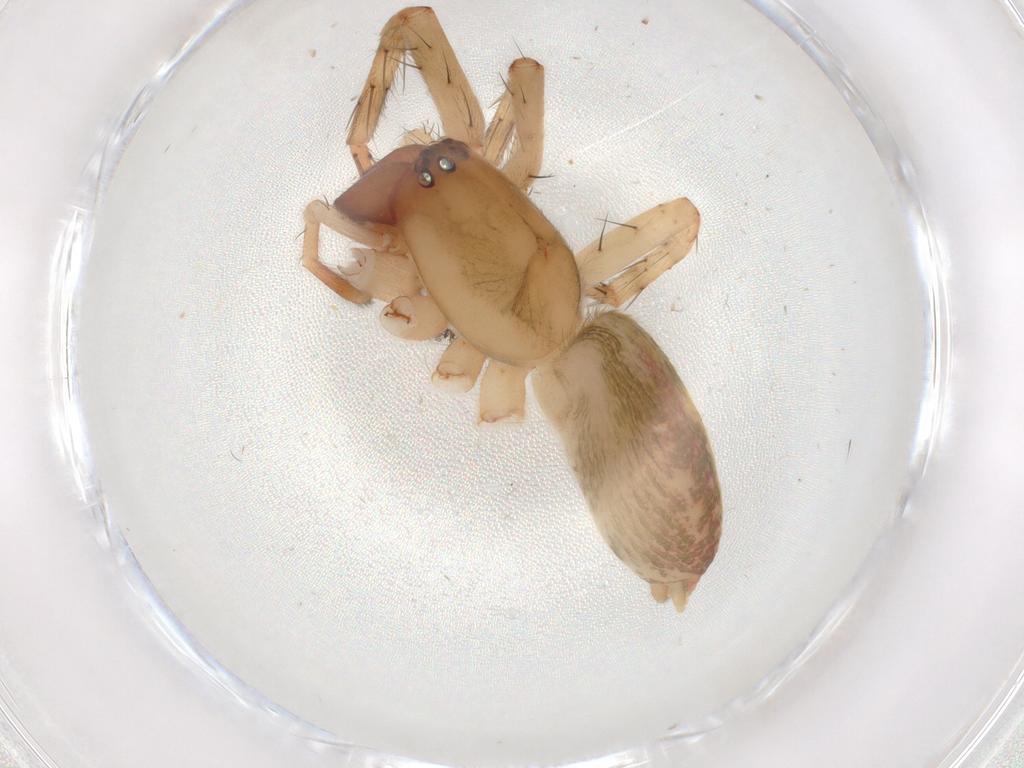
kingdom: Animalia
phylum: Arthropoda
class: Arachnida
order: Araneae
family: Anyphaenidae
